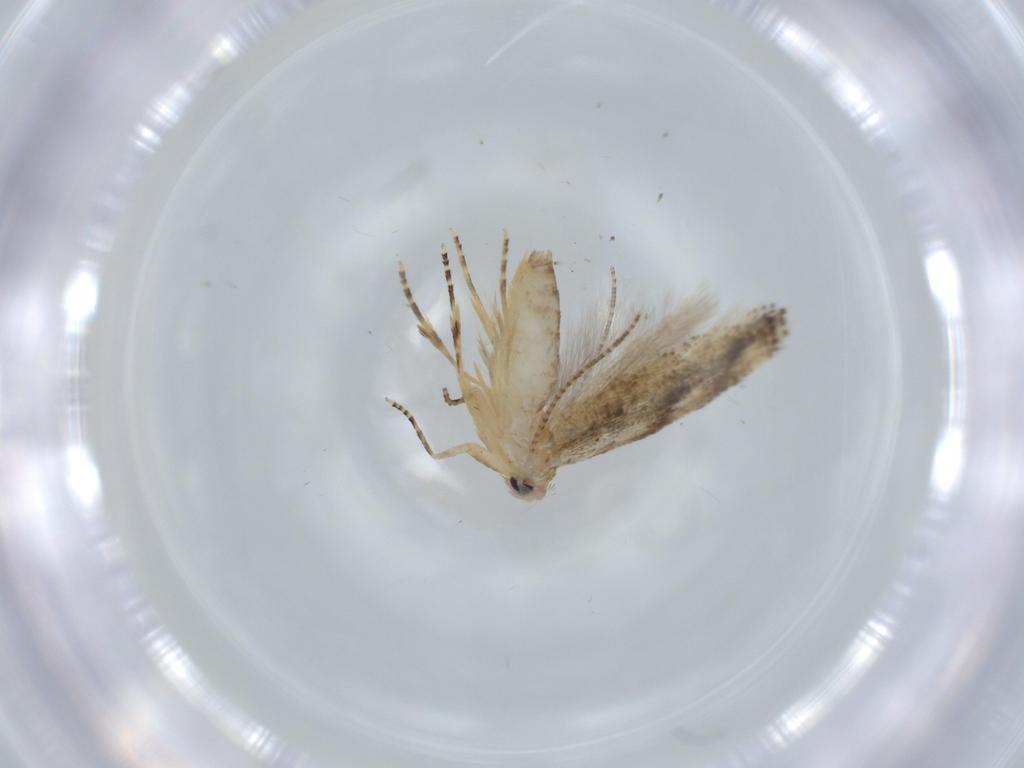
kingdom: Animalia
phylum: Arthropoda
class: Insecta
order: Lepidoptera
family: Bucculatricidae
